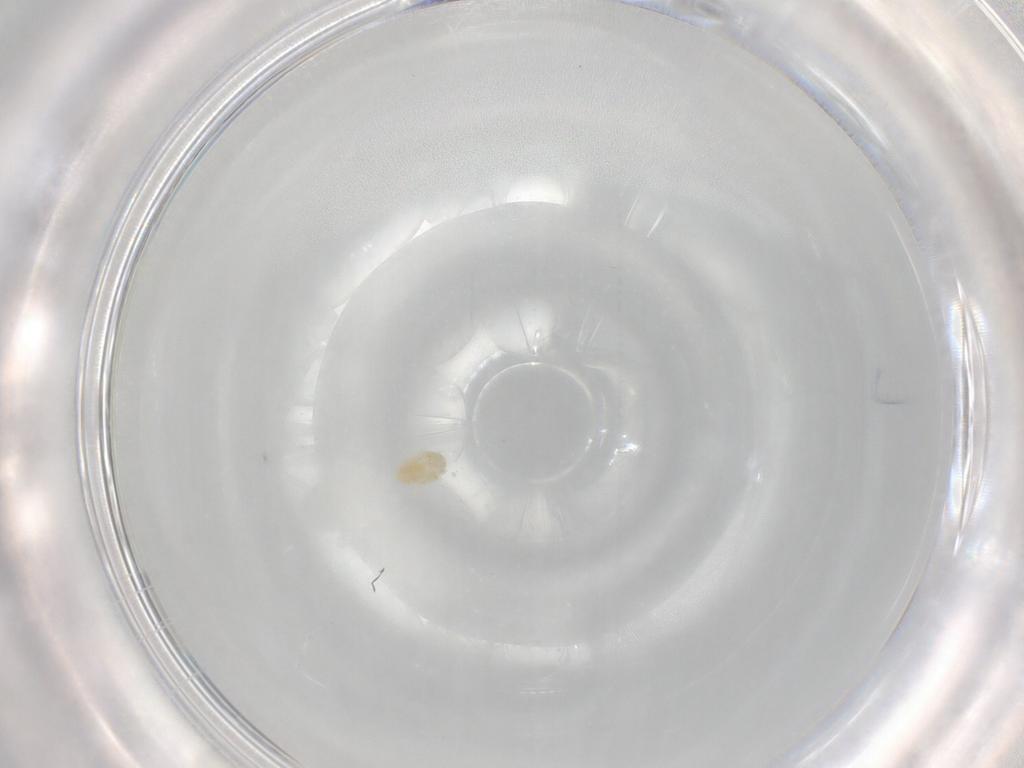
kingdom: Animalia
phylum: Arthropoda
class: Arachnida
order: Trombidiformes
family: Eupodidae
